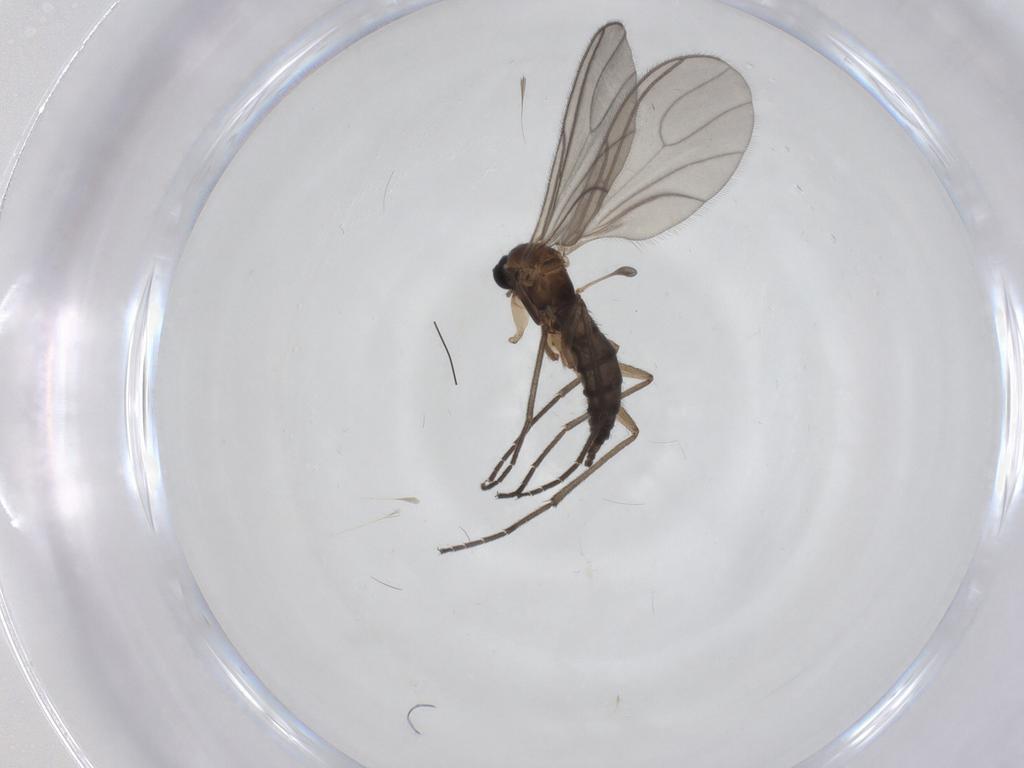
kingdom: Animalia
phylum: Arthropoda
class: Insecta
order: Diptera
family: Sciaridae
